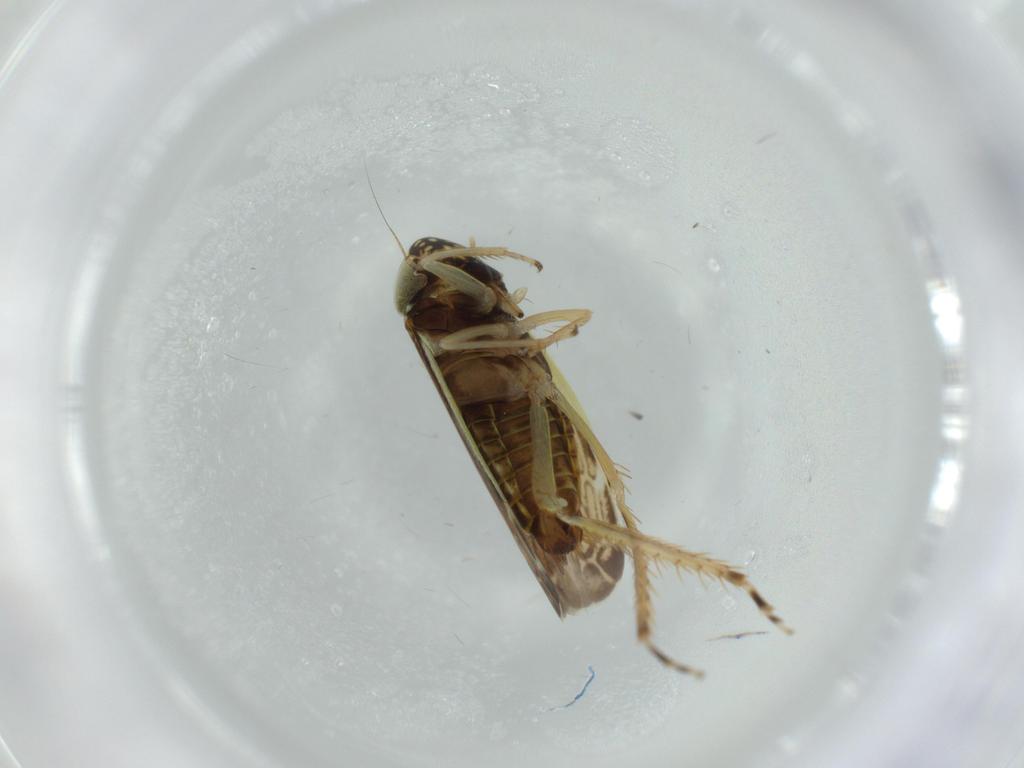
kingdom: Animalia
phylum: Arthropoda
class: Insecta
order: Hemiptera
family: Cicadellidae
